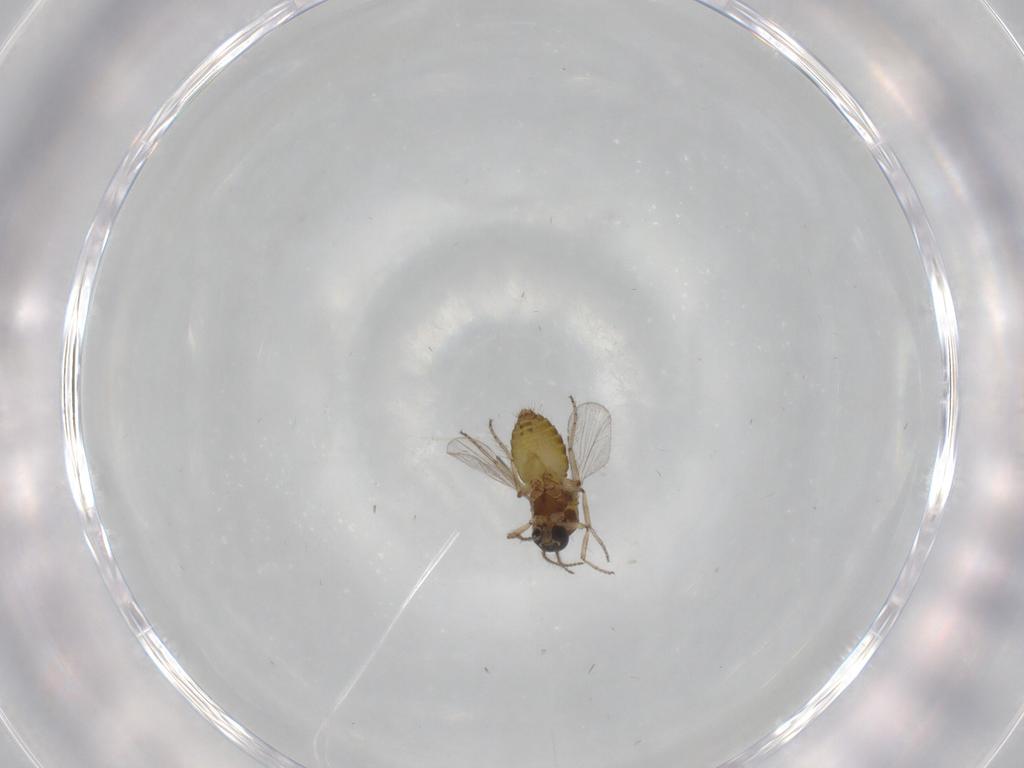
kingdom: Animalia
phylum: Arthropoda
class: Insecta
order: Diptera
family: Ceratopogonidae
